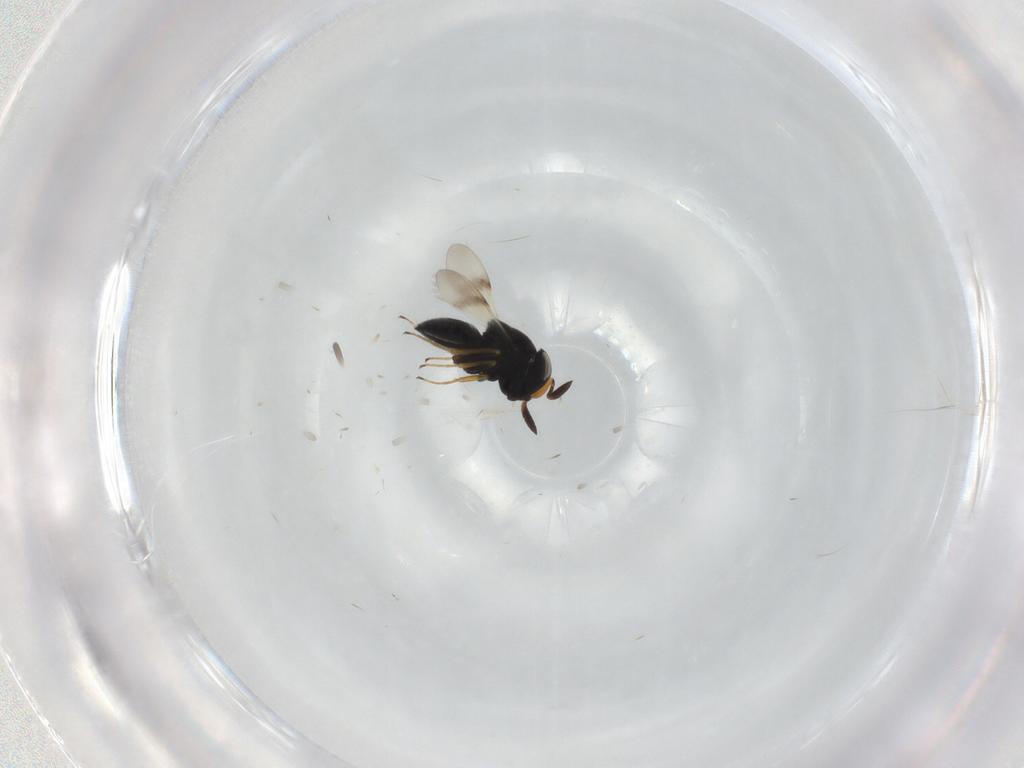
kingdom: Animalia
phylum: Arthropoda
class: Insecta
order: Hymenoptera
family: Scelionidae
